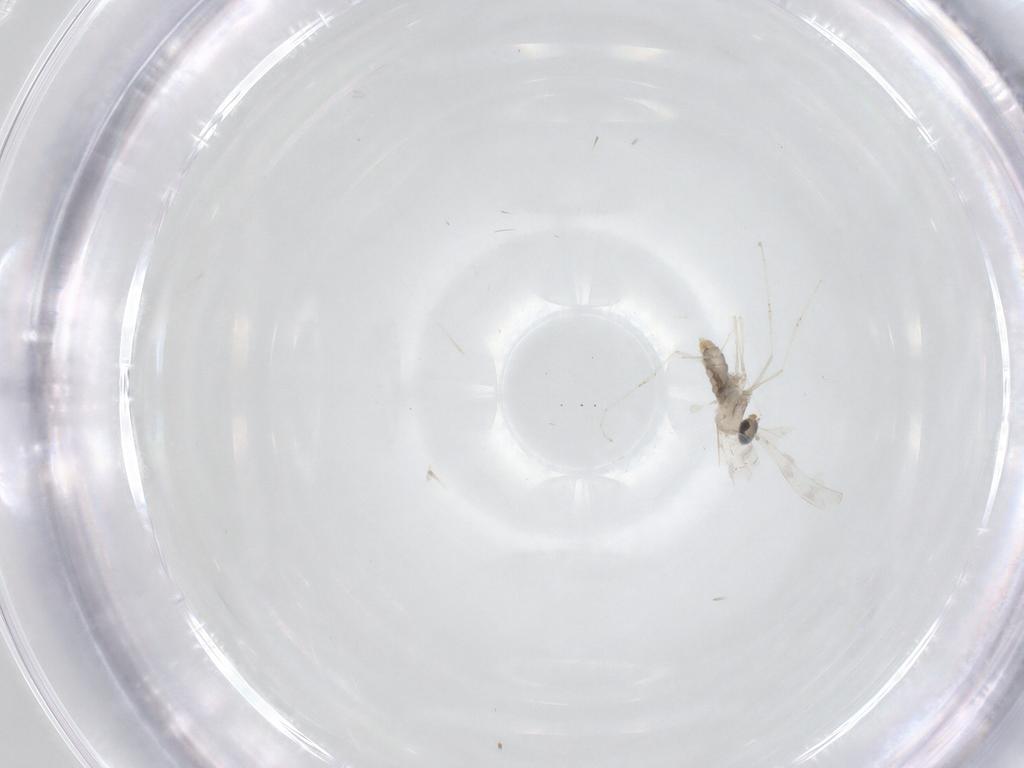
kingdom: Animalia
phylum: Arthropoda
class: Insecta
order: Diptera
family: Cecidomyiidae
